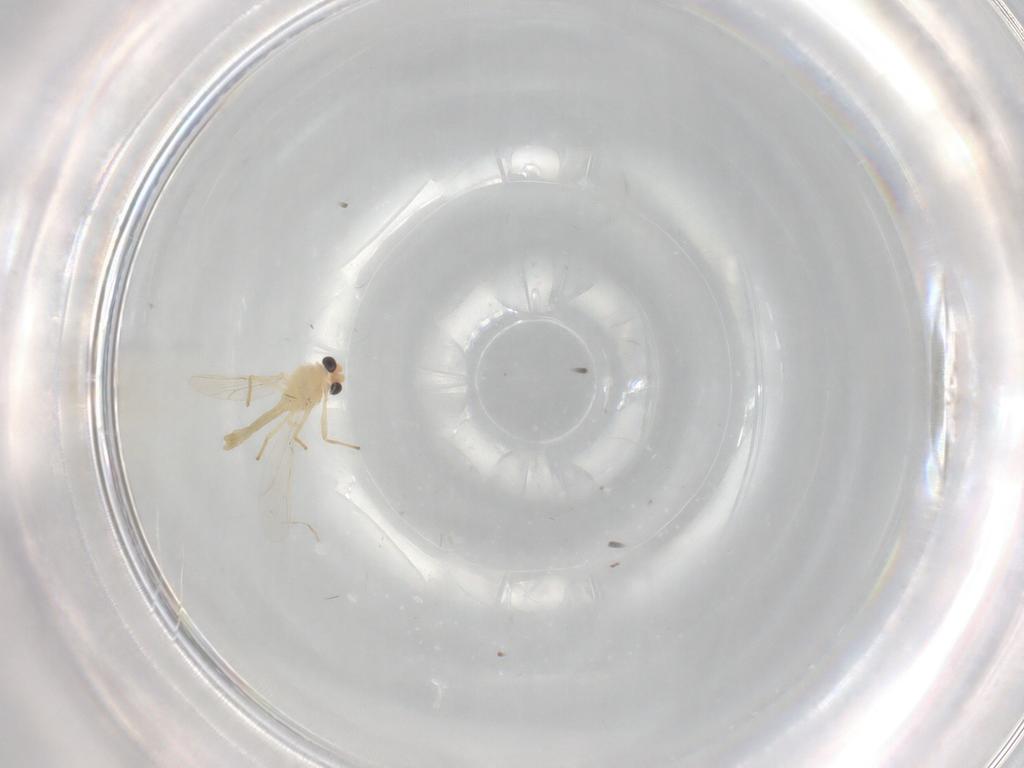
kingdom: Animalia
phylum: Arthropoda
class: Insecta
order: Diptera
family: Chironomidae
